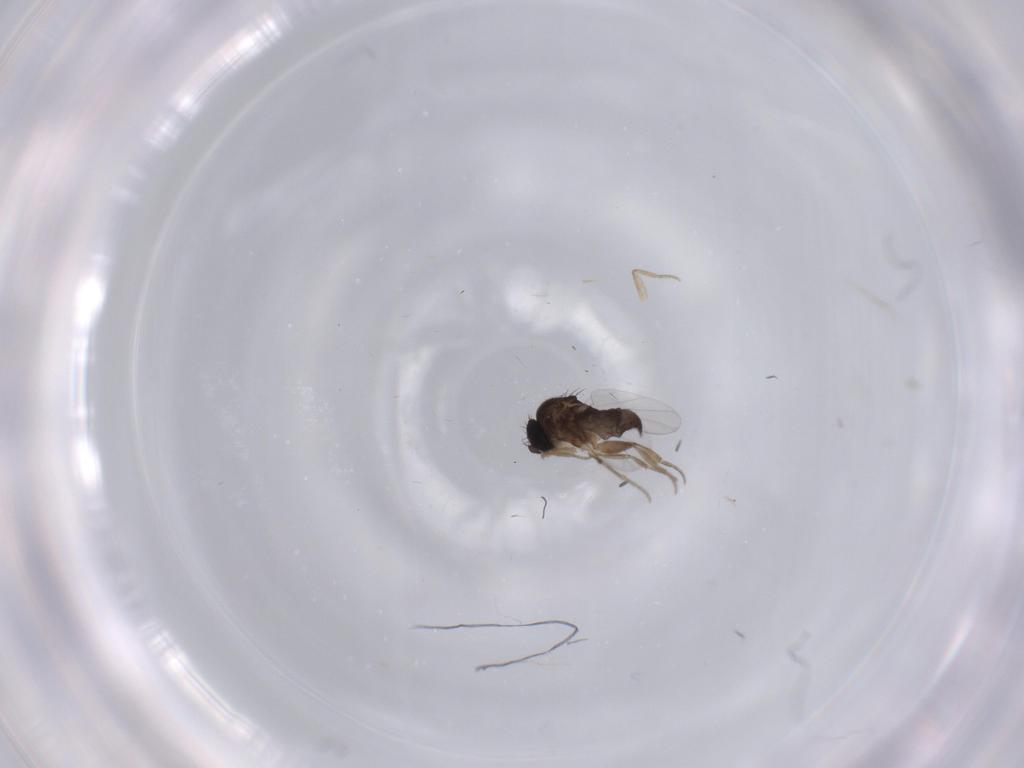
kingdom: Animalia
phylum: Arthropoda
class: Insecta
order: Diptera
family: Phoridae
